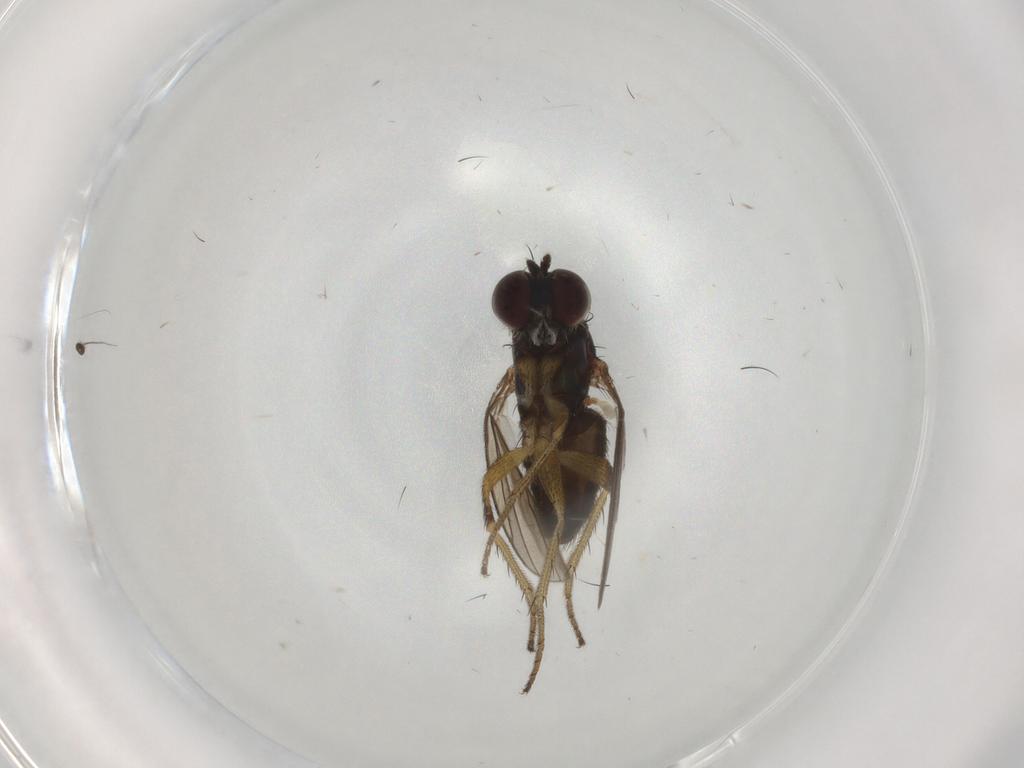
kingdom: Animalia
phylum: Arthropoda
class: Insecta
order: Diptera
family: Dolichopodidae
